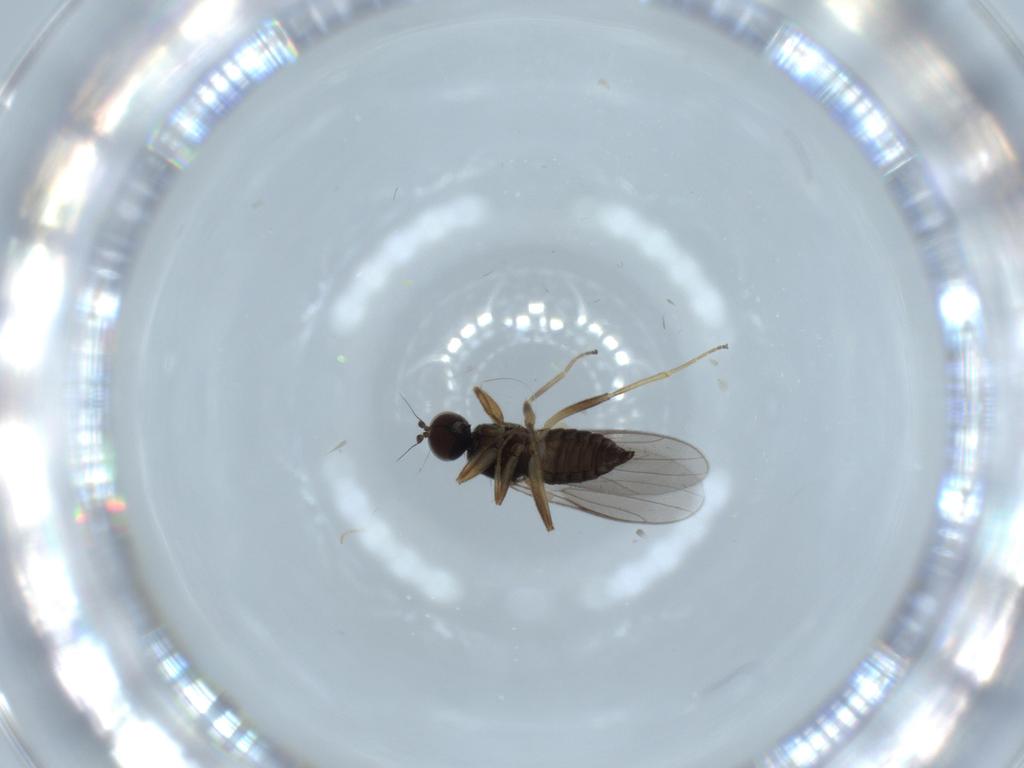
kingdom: Animalia
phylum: Arthropoda
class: Insecta
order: Diptera
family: Hybotidae
